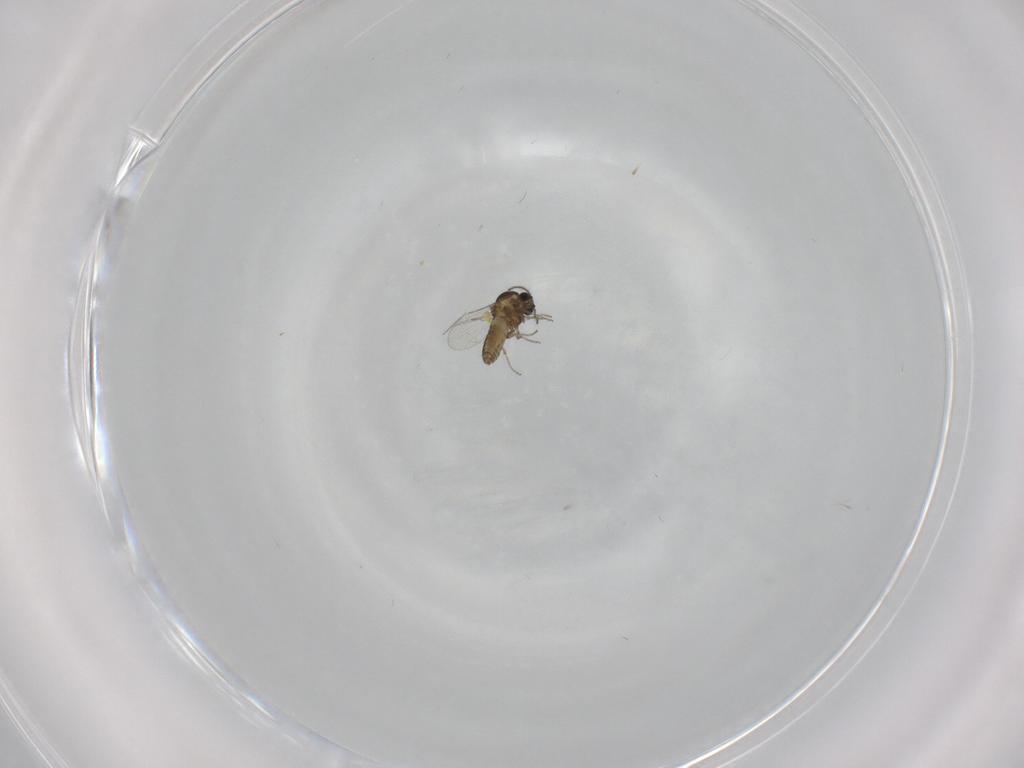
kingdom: Animalia
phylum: Arthropoda
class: Insecta
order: Diptera
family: Ceratopogonidae
